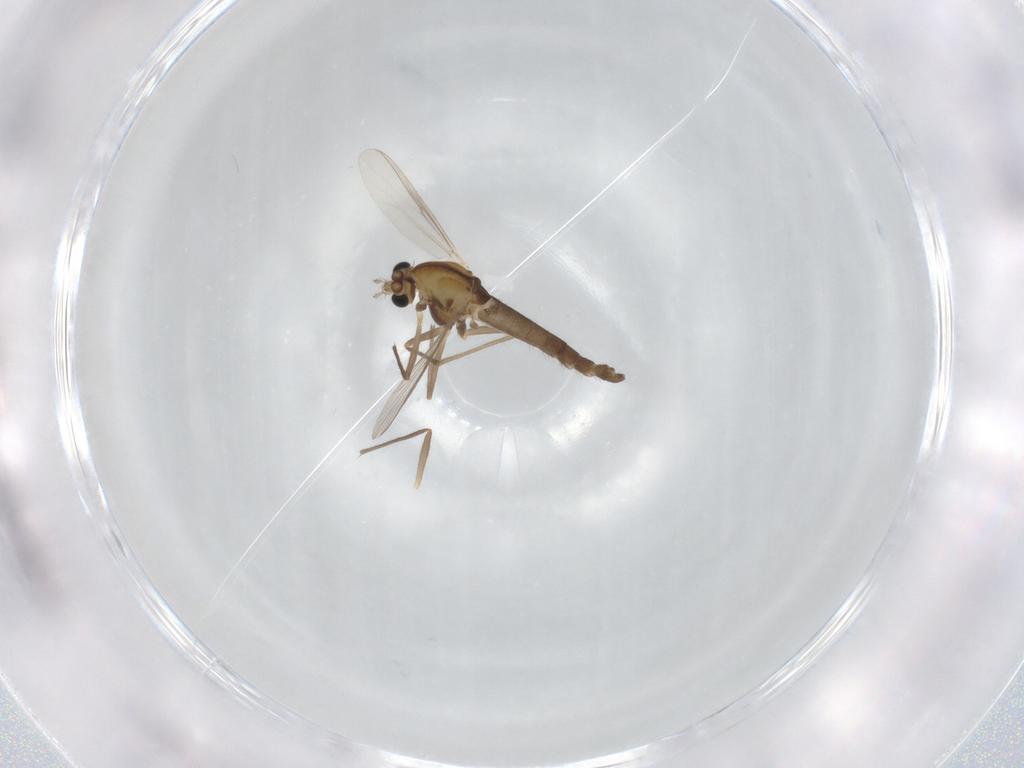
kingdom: Animalia
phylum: Arthropoda
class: Insecta
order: Diptera
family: Chironomidae
